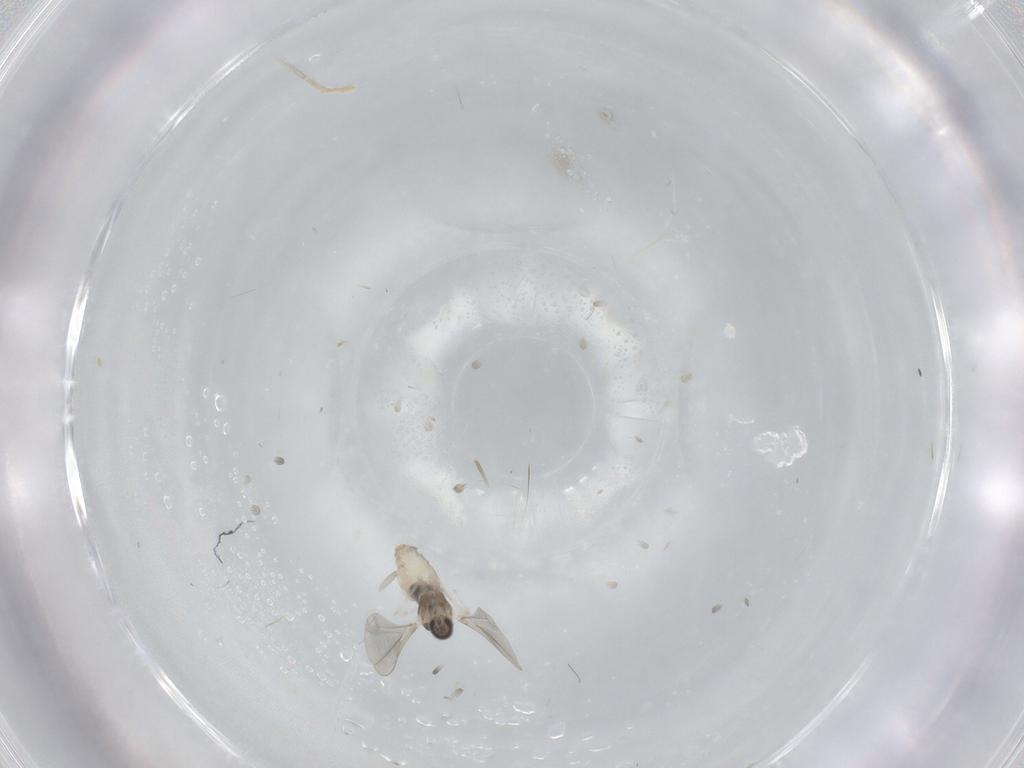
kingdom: Animalia
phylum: Arthropoda
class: Insecta
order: Diptera
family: Cecidomyiidae
